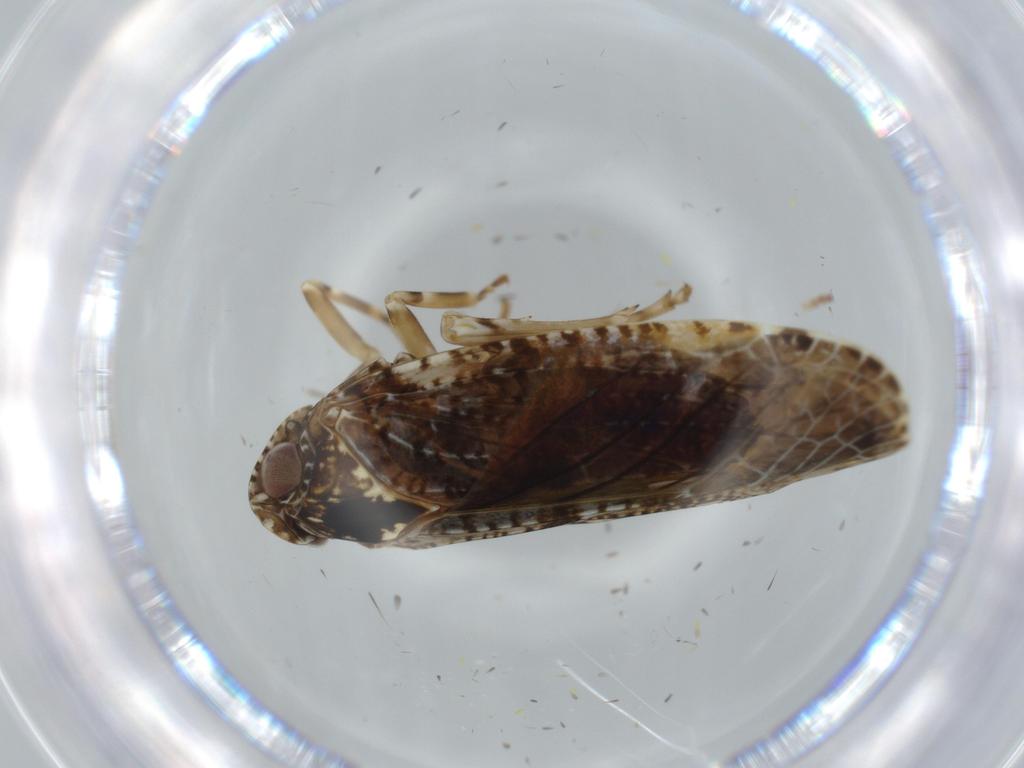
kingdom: Animalia
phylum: Arthropoda
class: Insecta
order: Hemiptera
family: Achilidae
